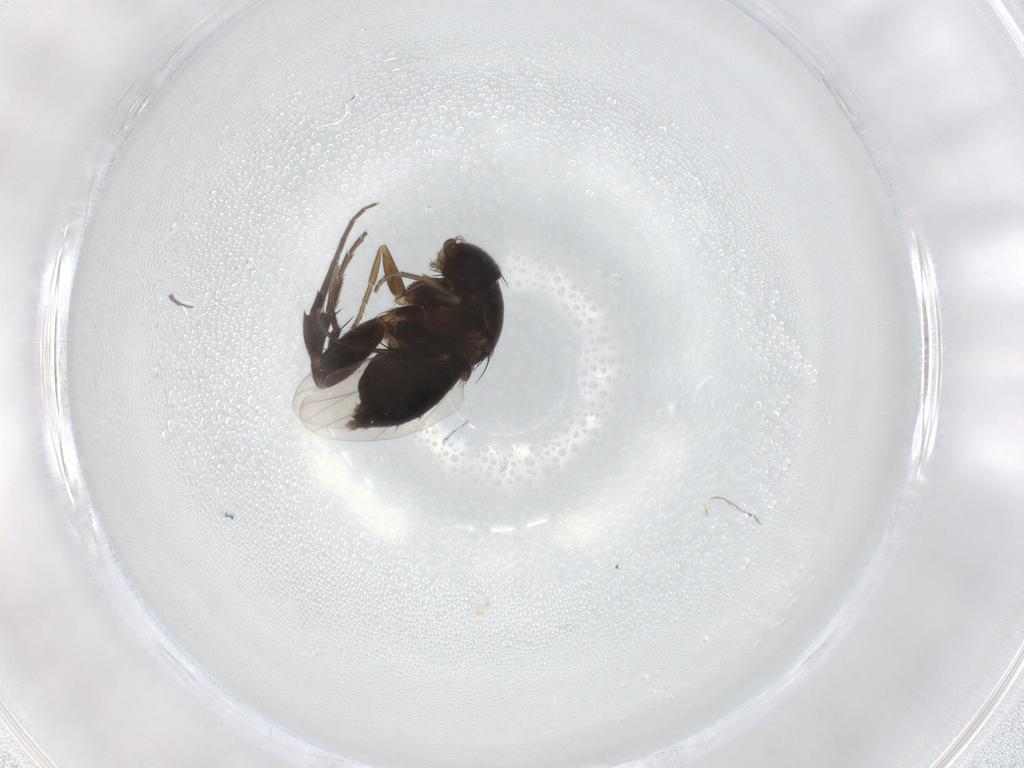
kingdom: Animalia
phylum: Arthropoda
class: Insecta
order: Diptera
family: Phoridae
